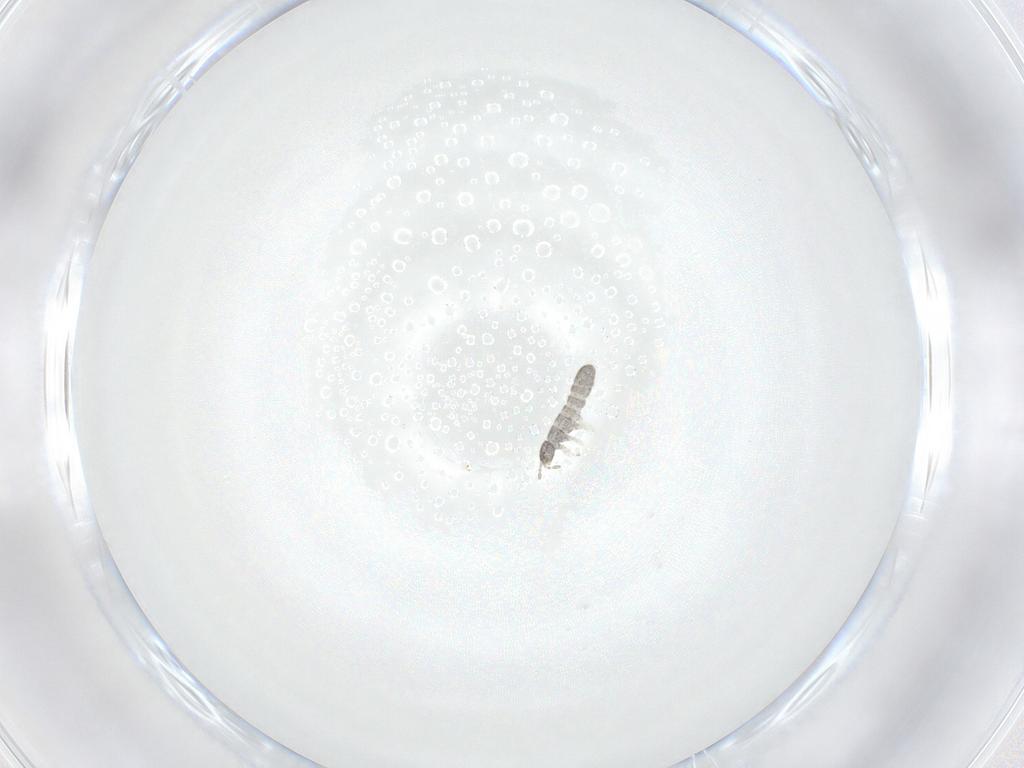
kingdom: Animalia
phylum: Arthropoda
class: Collembola
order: Entomobryomorpha
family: Isotomidae
